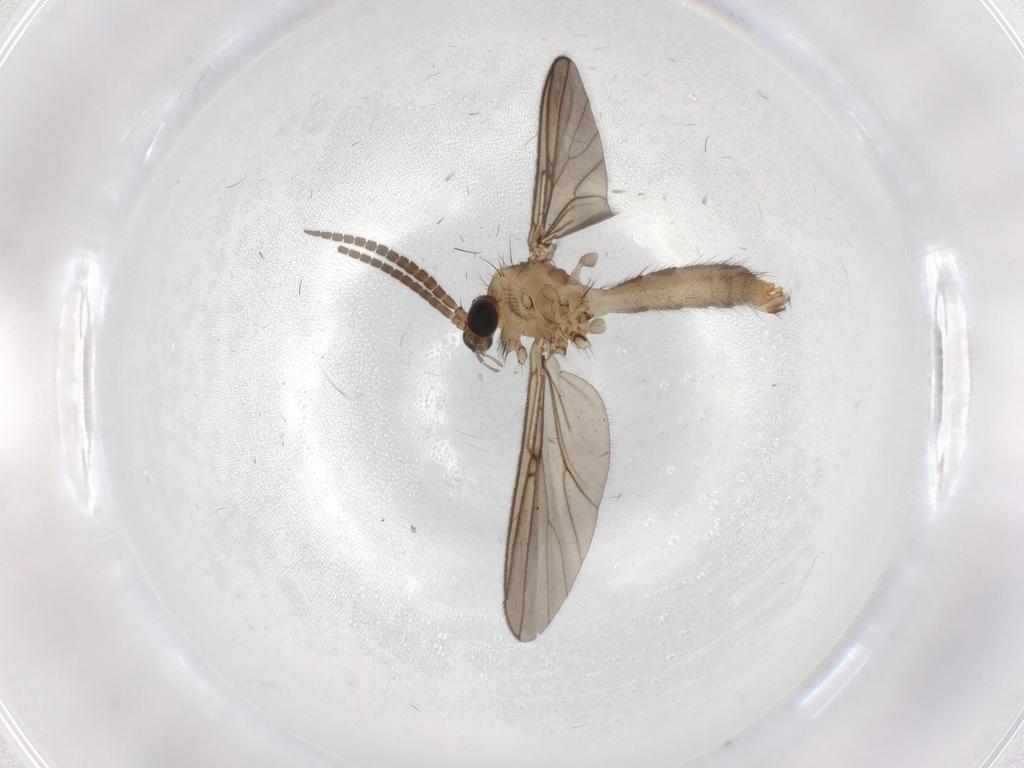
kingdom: Animalia
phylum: Arthropoda
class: Insecta
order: Diptera
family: Cecidomyiidae
